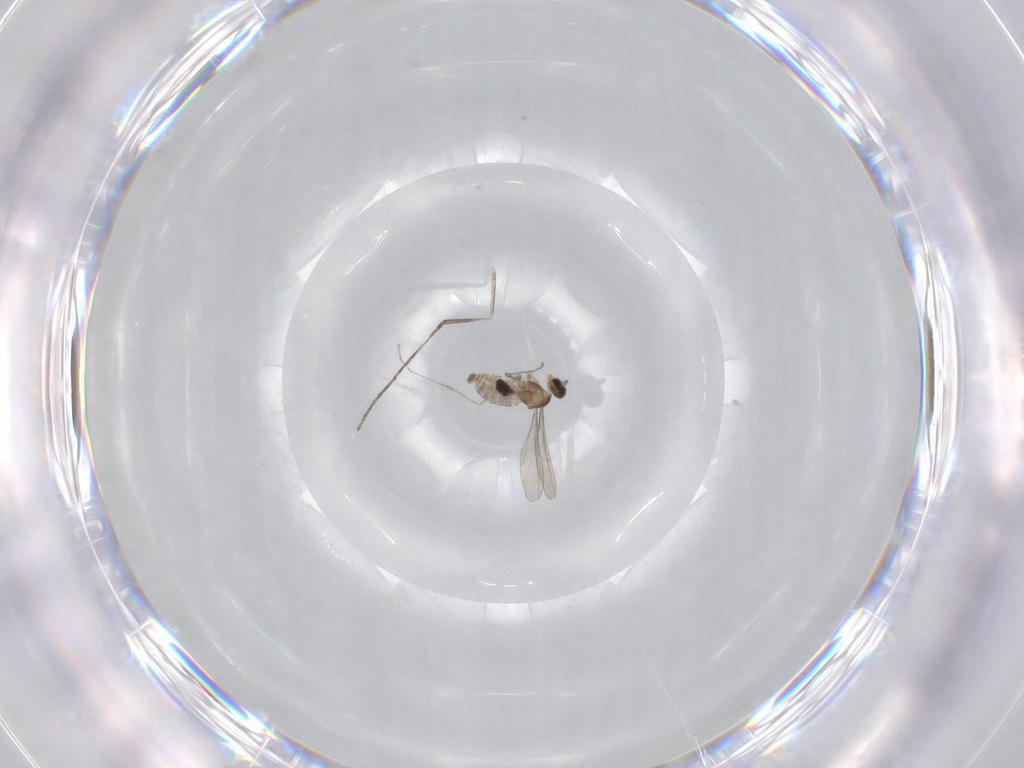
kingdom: Animalia
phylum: Arthropoda
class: Insecta
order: Diptera
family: Cecidomyiidae
